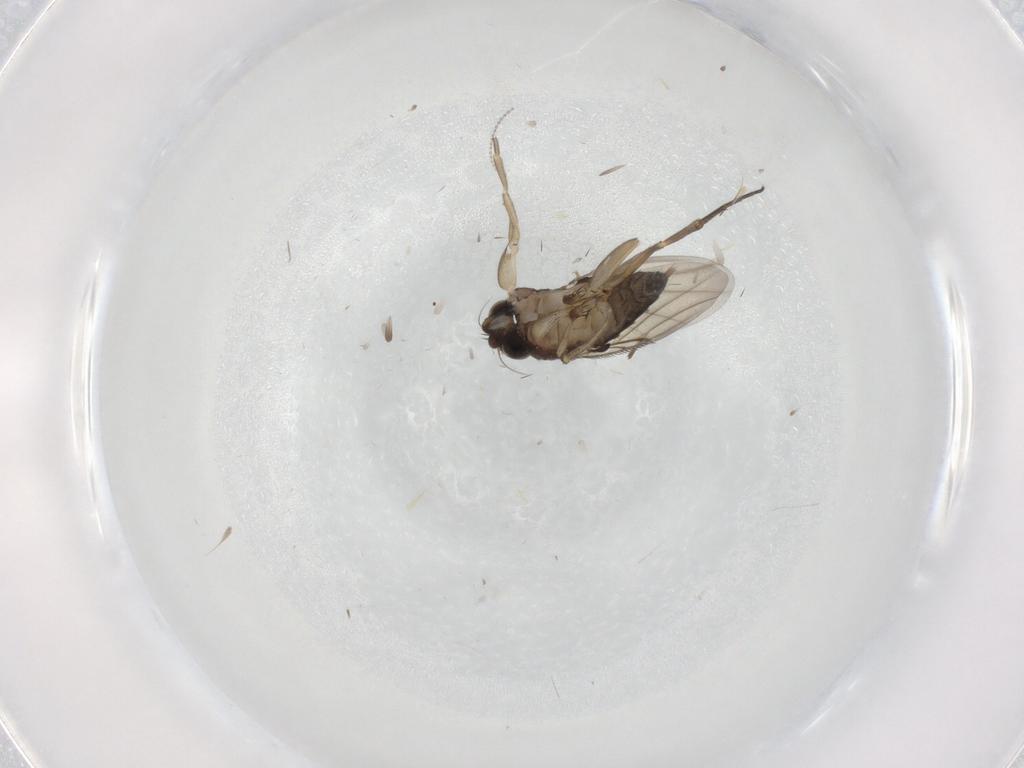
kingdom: Animalia
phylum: Arthropoda
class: Insecta
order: Diptera
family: Phoridae
